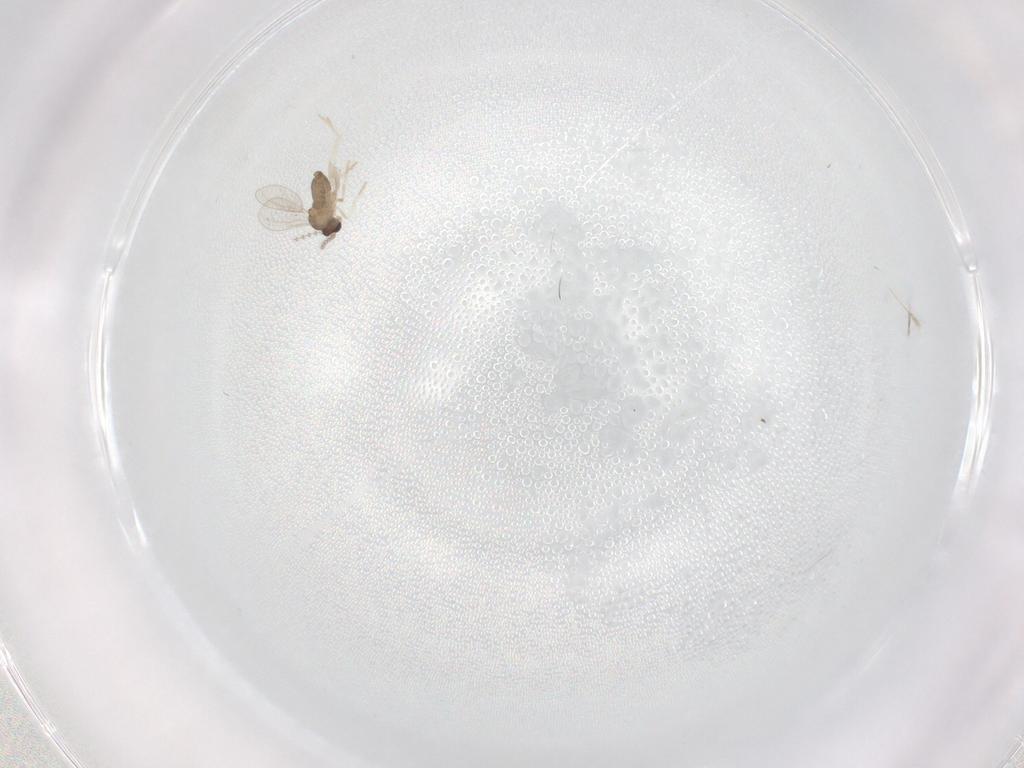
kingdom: Animalia
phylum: Arthropoda
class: Insecta
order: Diptera
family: Cecidomyiidae
